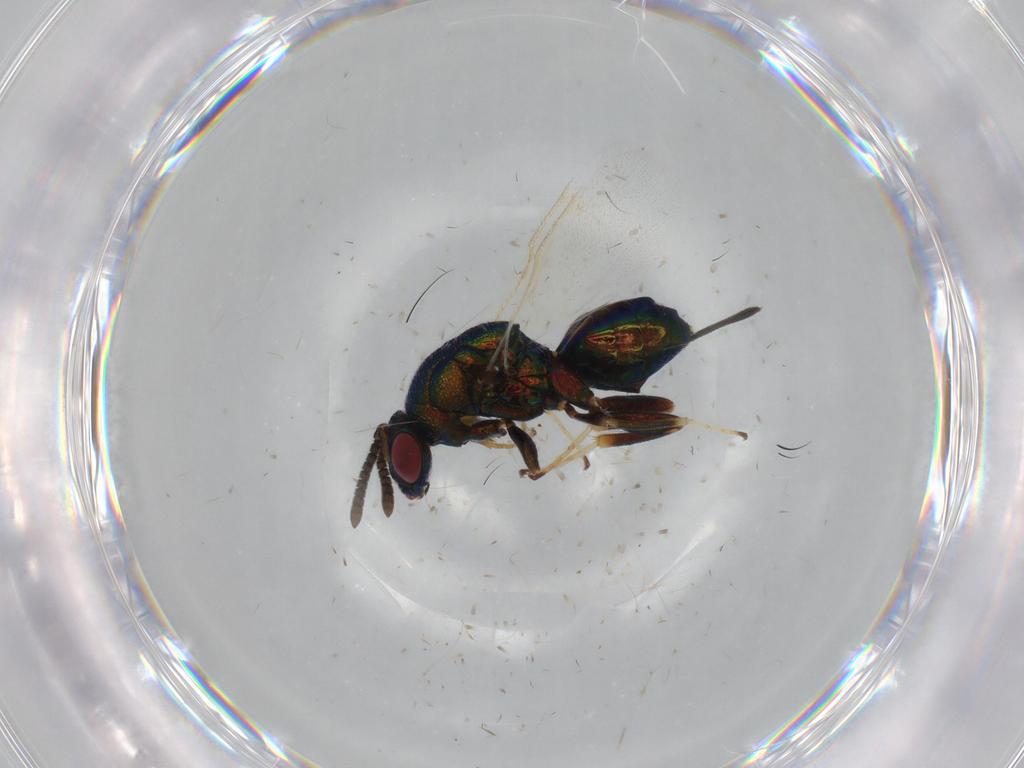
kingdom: Animalia
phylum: Arthropoda
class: Insecta
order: Hymenoptera
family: Torymidae
